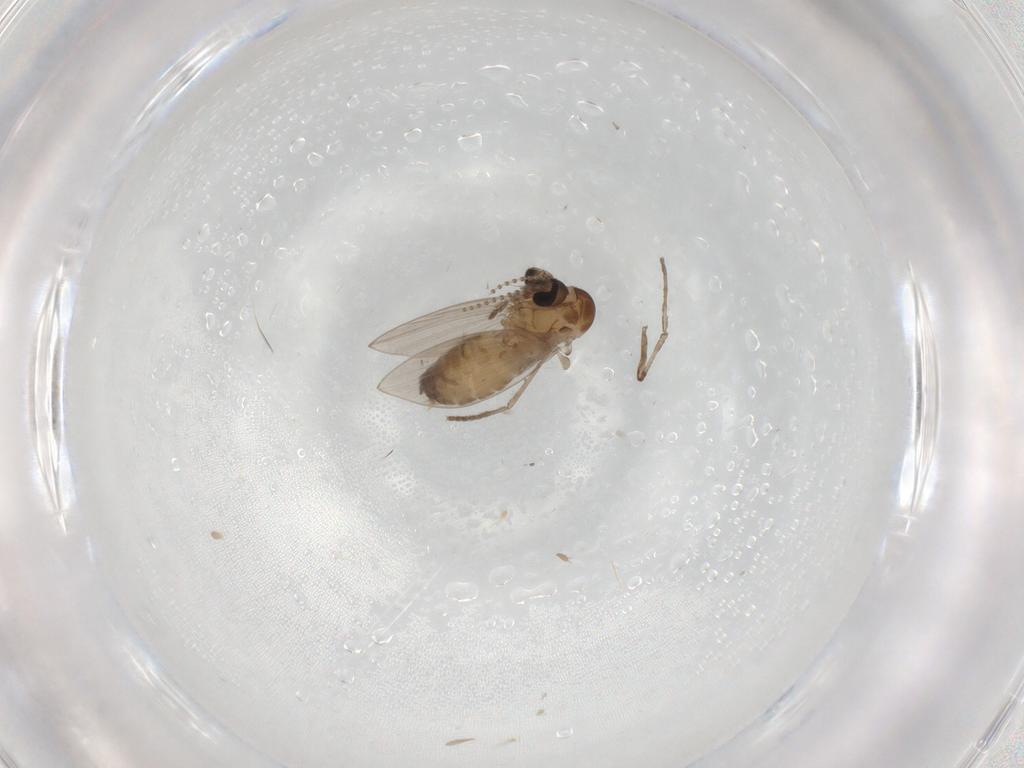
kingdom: Animalia
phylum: Arthropoda
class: Insecta
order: Diptera
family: Psychodidae
